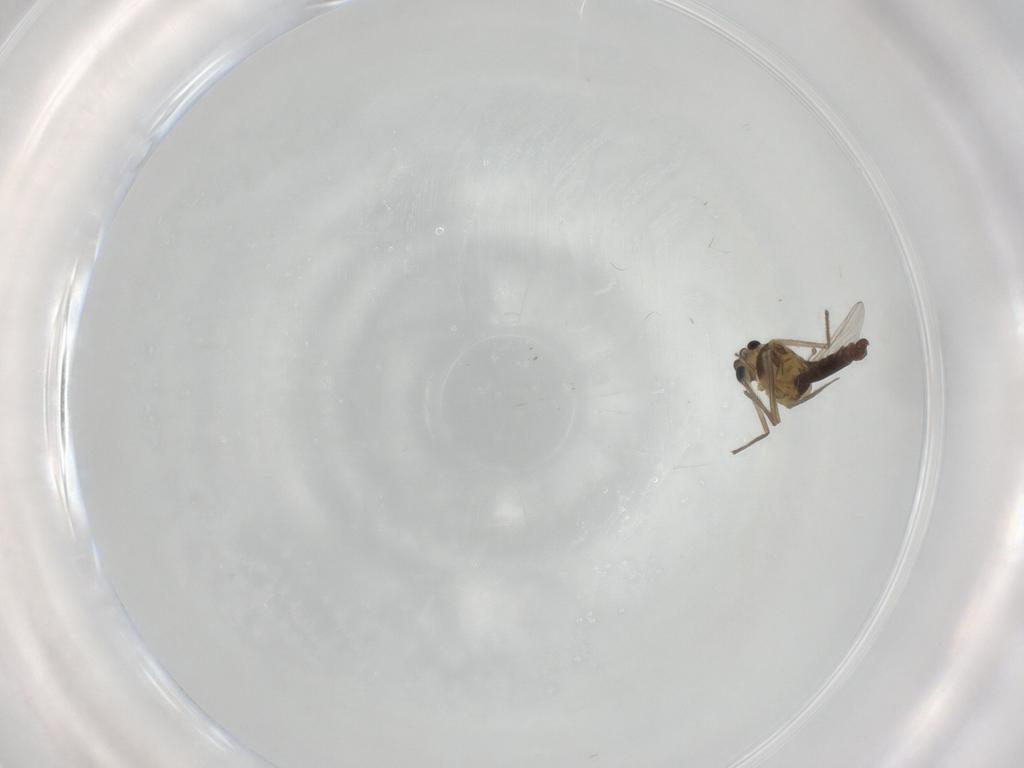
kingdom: Animalia
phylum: Arthropoda
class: Insecta
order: Diptera
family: Chironomidae
